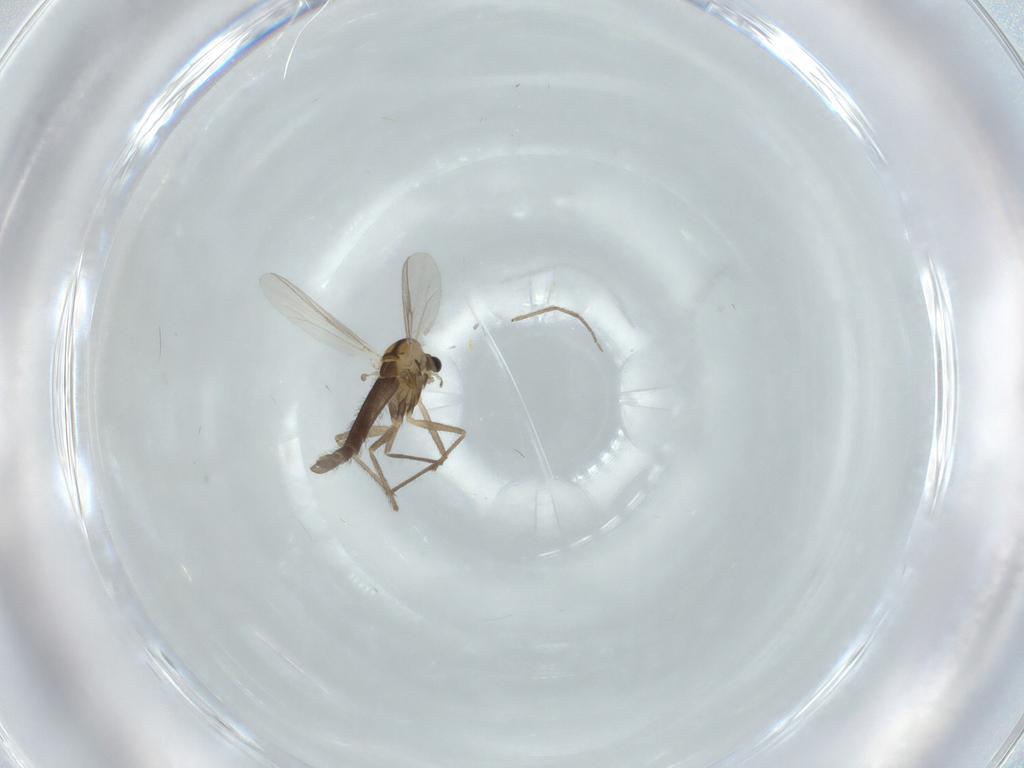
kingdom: Animalia
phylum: Arthropoda
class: Insecta
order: Diptera
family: Chironomidae
